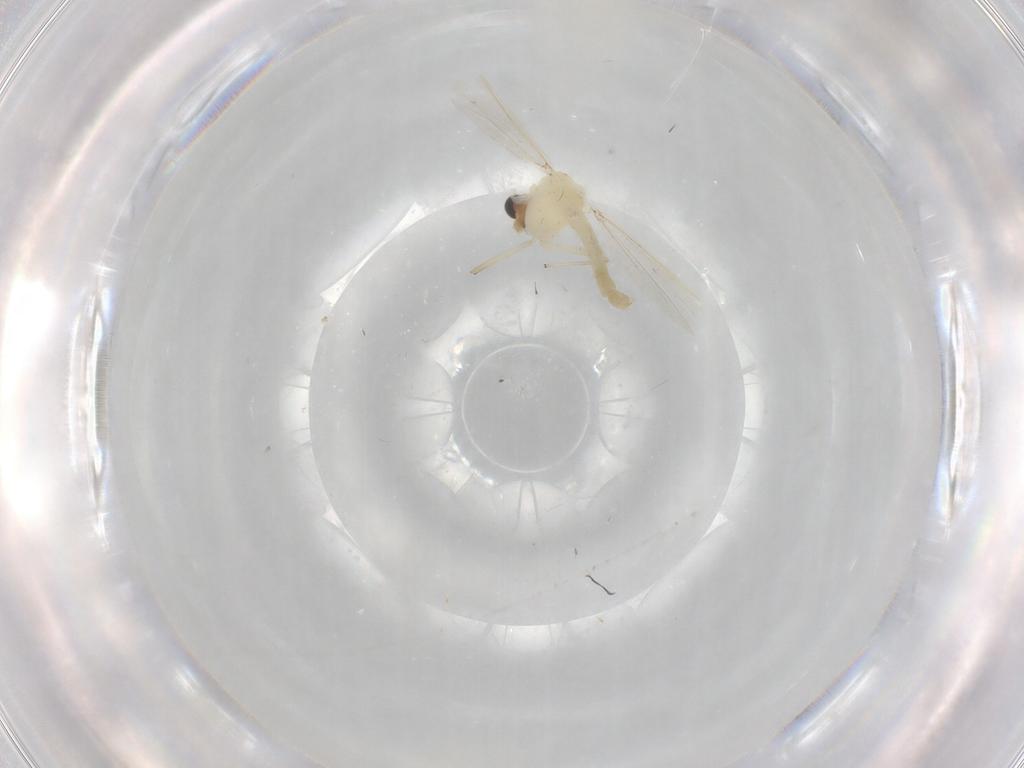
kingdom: Animalia
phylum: Arthropoda
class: Insecta
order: Diptera
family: Chironomidae
